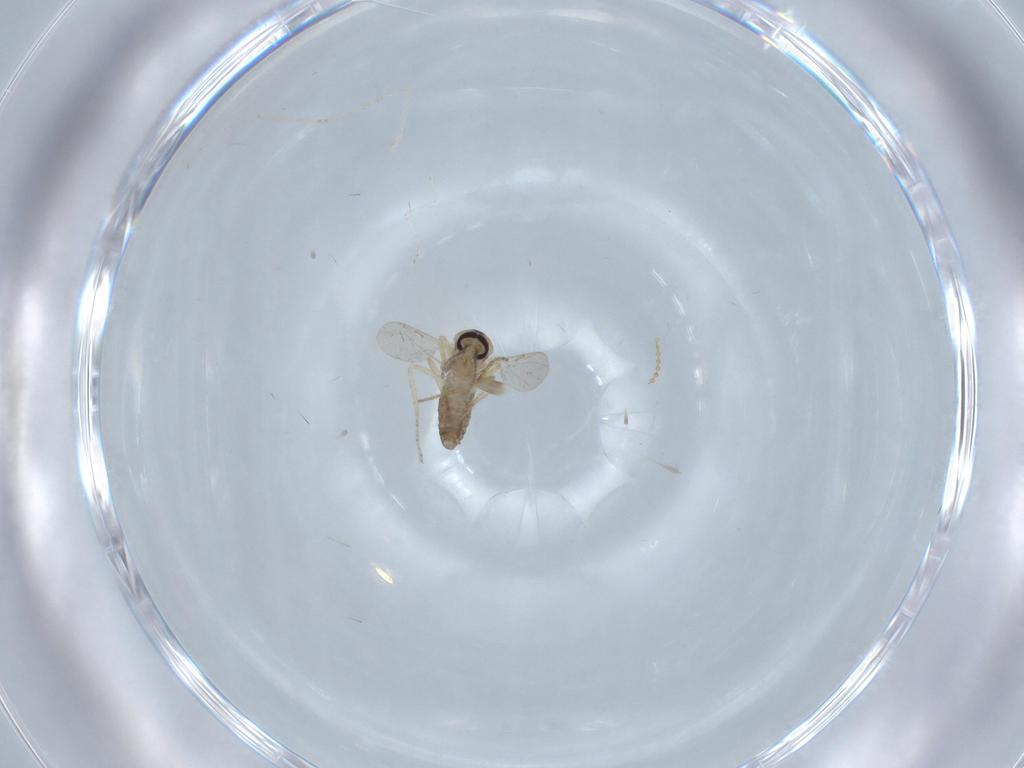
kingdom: Animalia
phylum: Arthropoda
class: Insecta
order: Diptera
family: Ceratopogonidae
